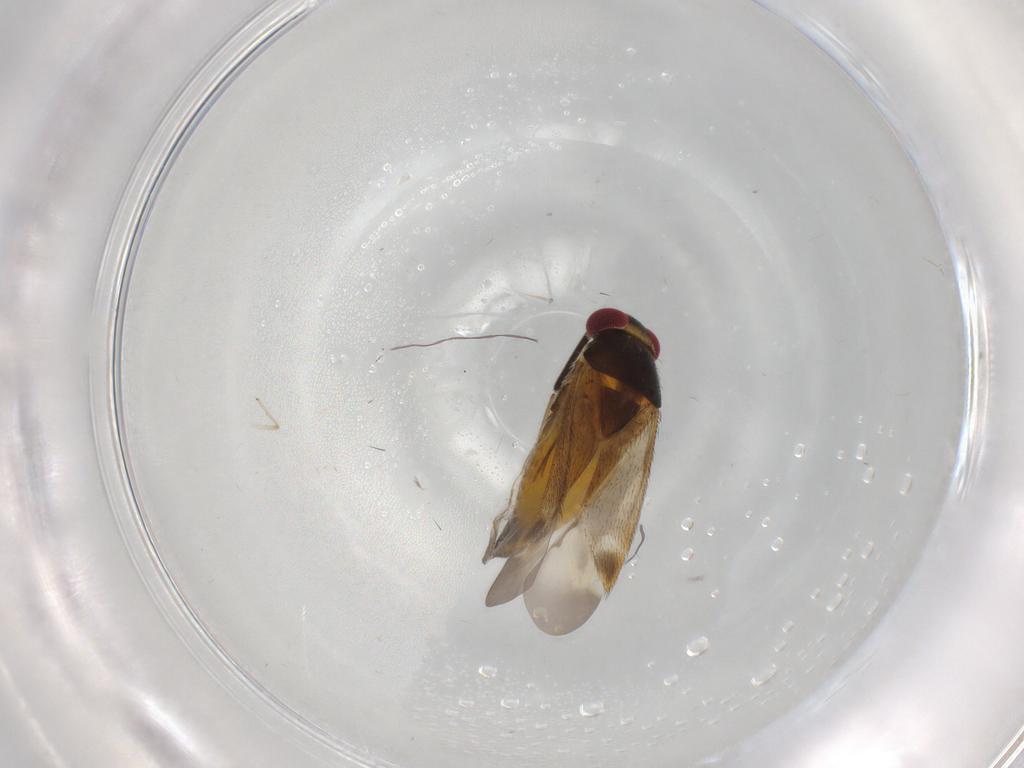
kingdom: Animalia
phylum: Arthropoda
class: Insecta
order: Hemiptera
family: Miridae
